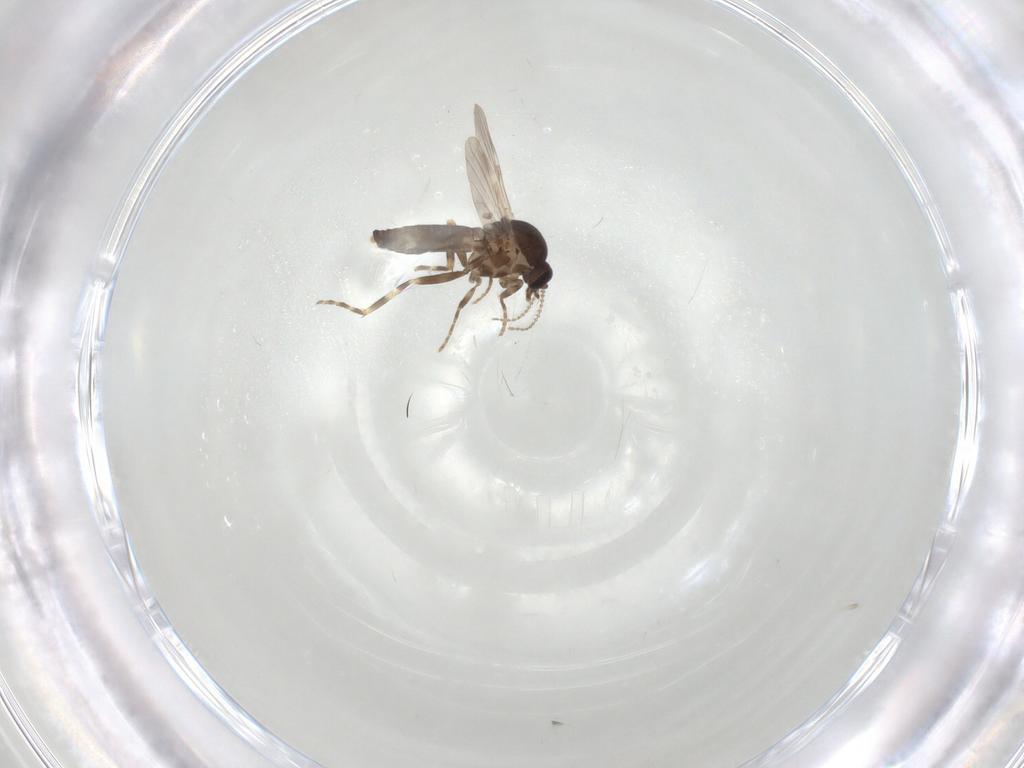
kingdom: Animalia
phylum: Arthropoda
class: Insecta
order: Diptera
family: Ceratopogonidae
